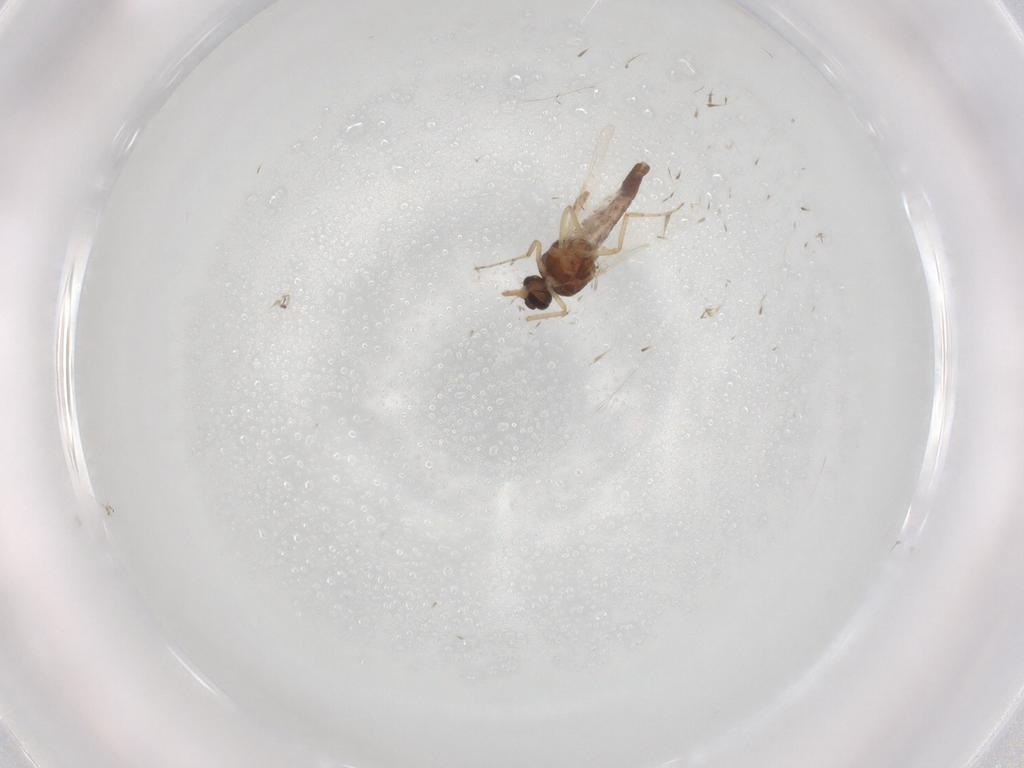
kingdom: Animalia
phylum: Arthropoda
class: Insecta
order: Diptera
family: Ceratopogonidae
